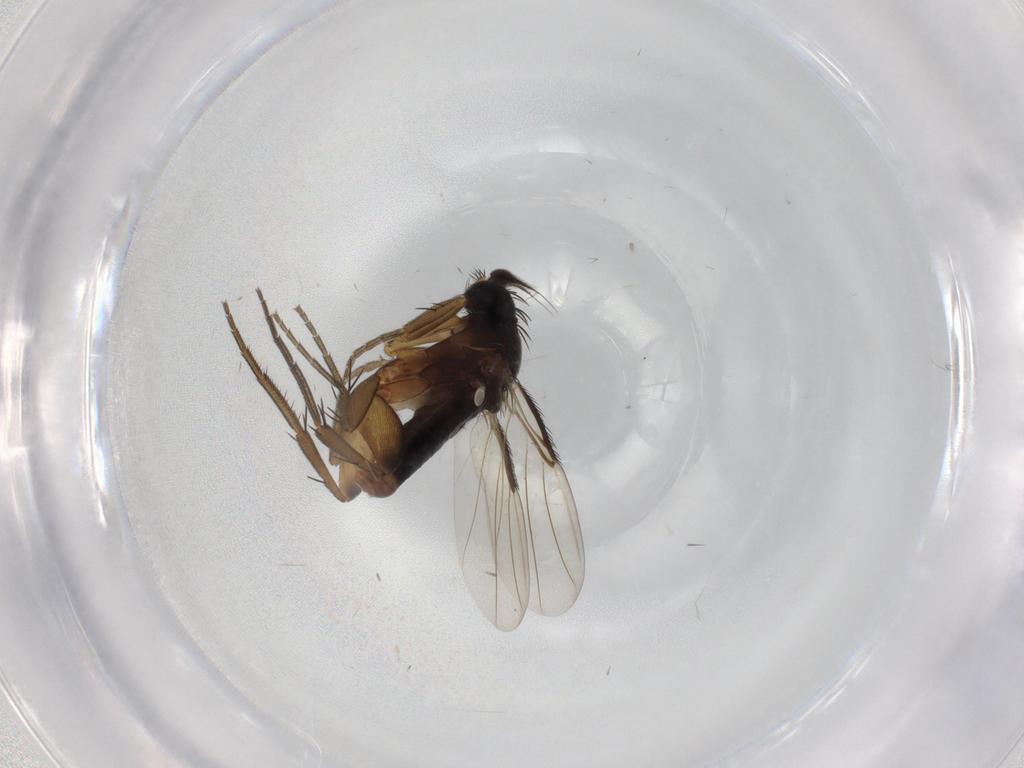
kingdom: Animalia
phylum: Arthropoda
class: Insecta
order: Diptera
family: Phoridae
